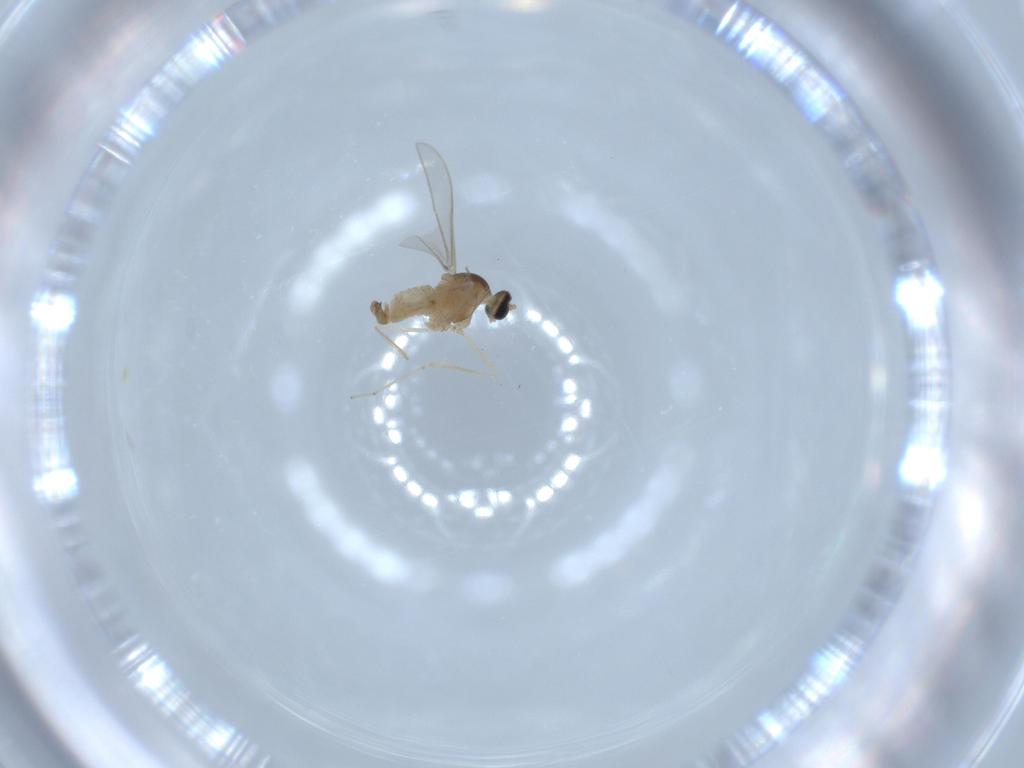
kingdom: Animalia
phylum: Arthropoda
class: Insecta
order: Diptera
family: Cecidomyiidae
